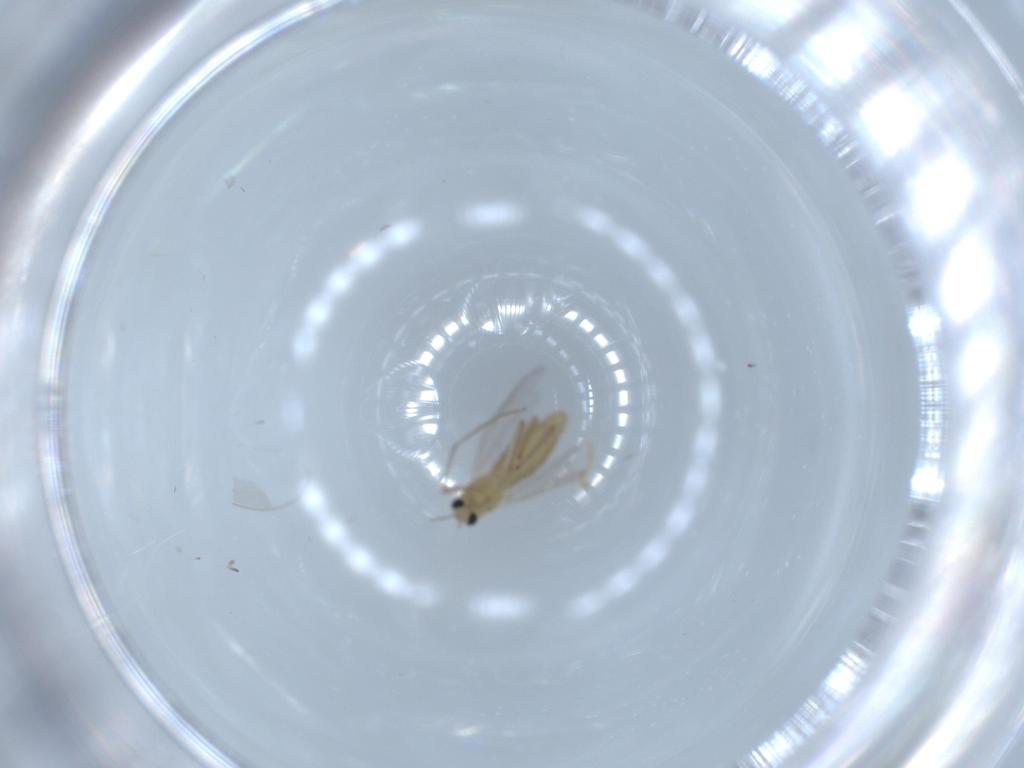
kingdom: Animalia
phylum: Arthropoda
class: Insecta
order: Diptera
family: Chironomidae
